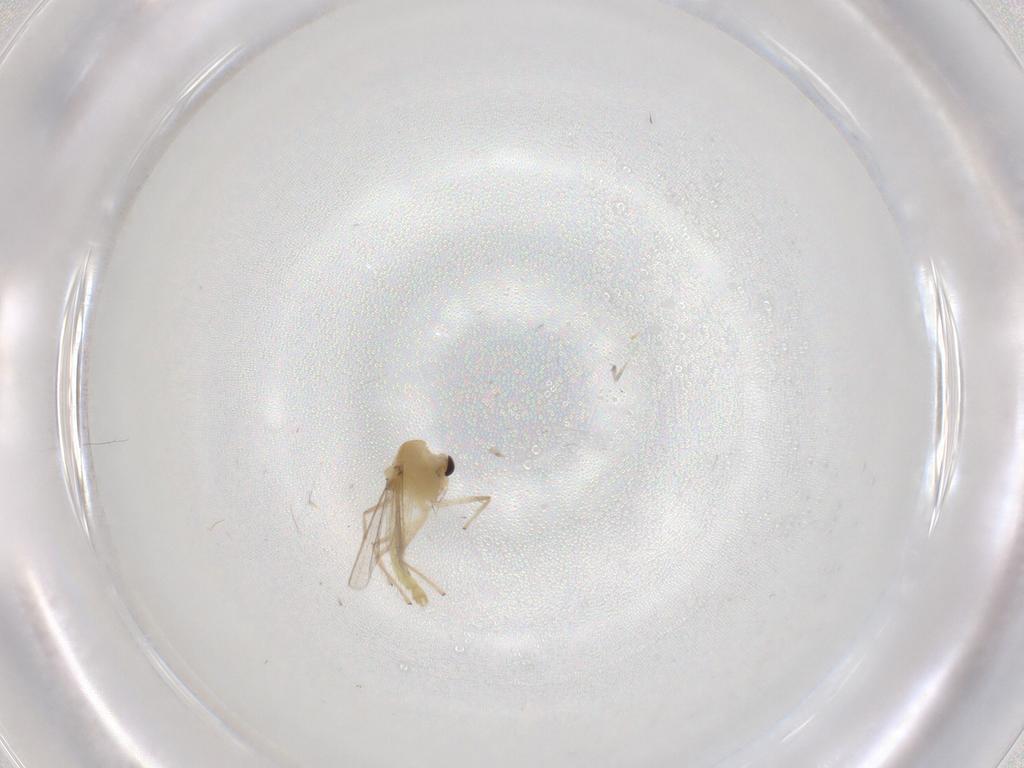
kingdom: Animalia
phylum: Arthropoda
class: Insecta
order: Diptera
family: Chironomidae
